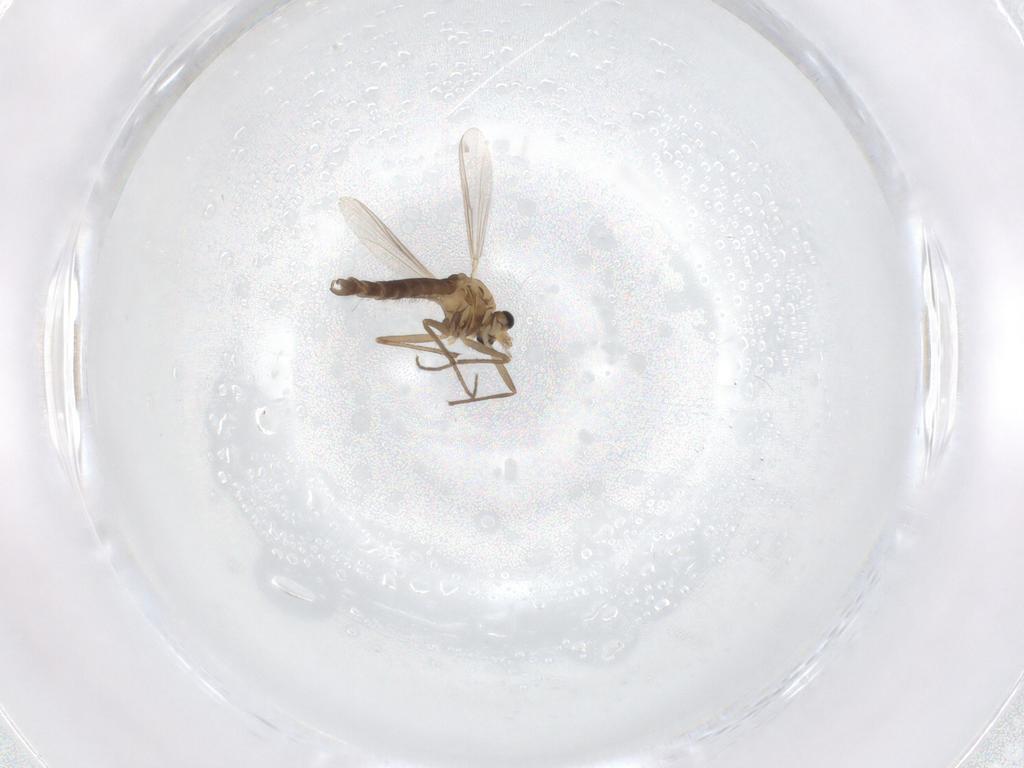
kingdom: Animalia
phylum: Arthropoda
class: Insecta
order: Diptera
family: Chironomidae
